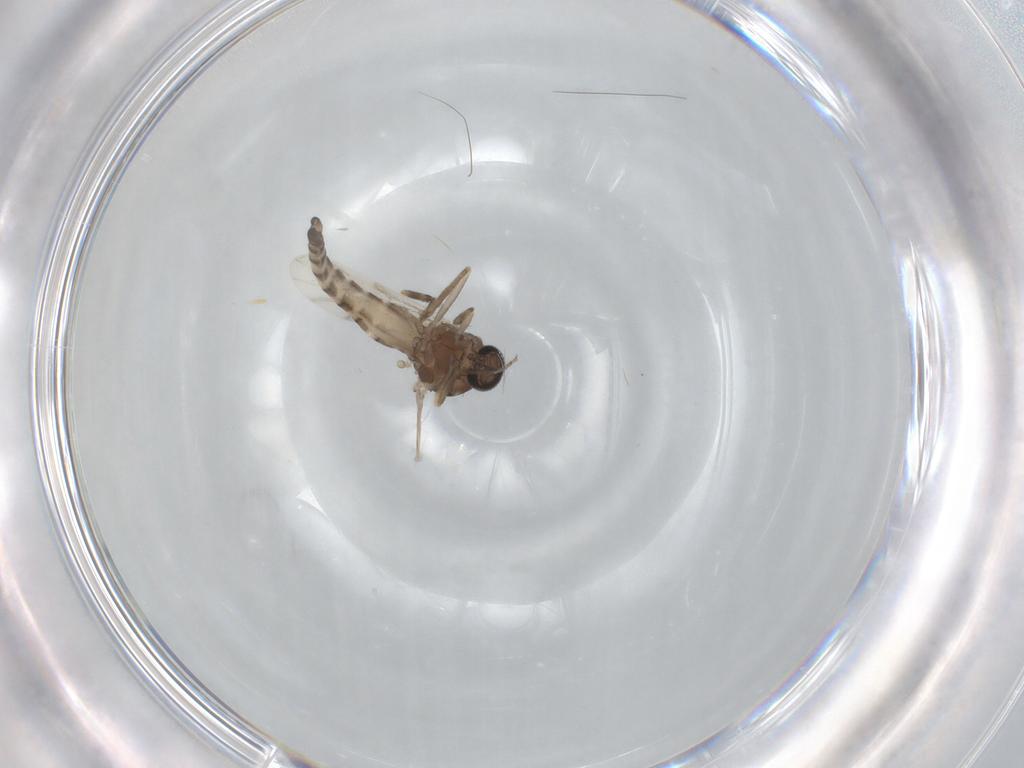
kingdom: Animalia
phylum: Arthropoda
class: Insecta
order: Diptera
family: Ceratopogonidae
